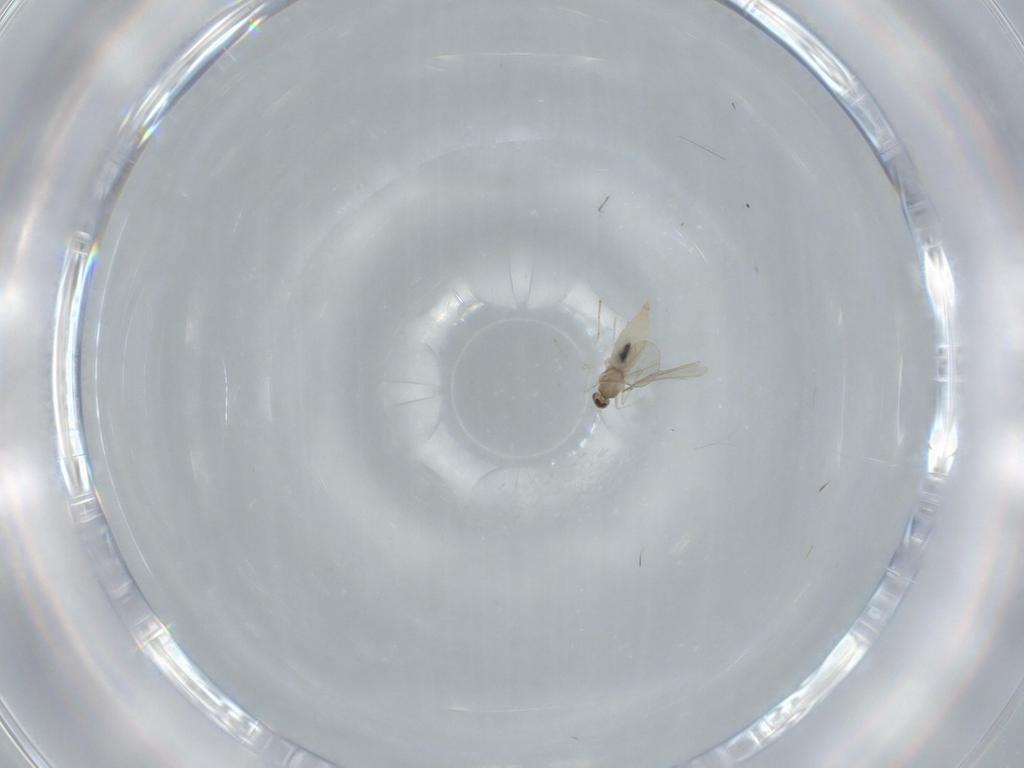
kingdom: Animalia
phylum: Arthropoda
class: Insecta
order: Diptera
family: Cecidomyiidae
